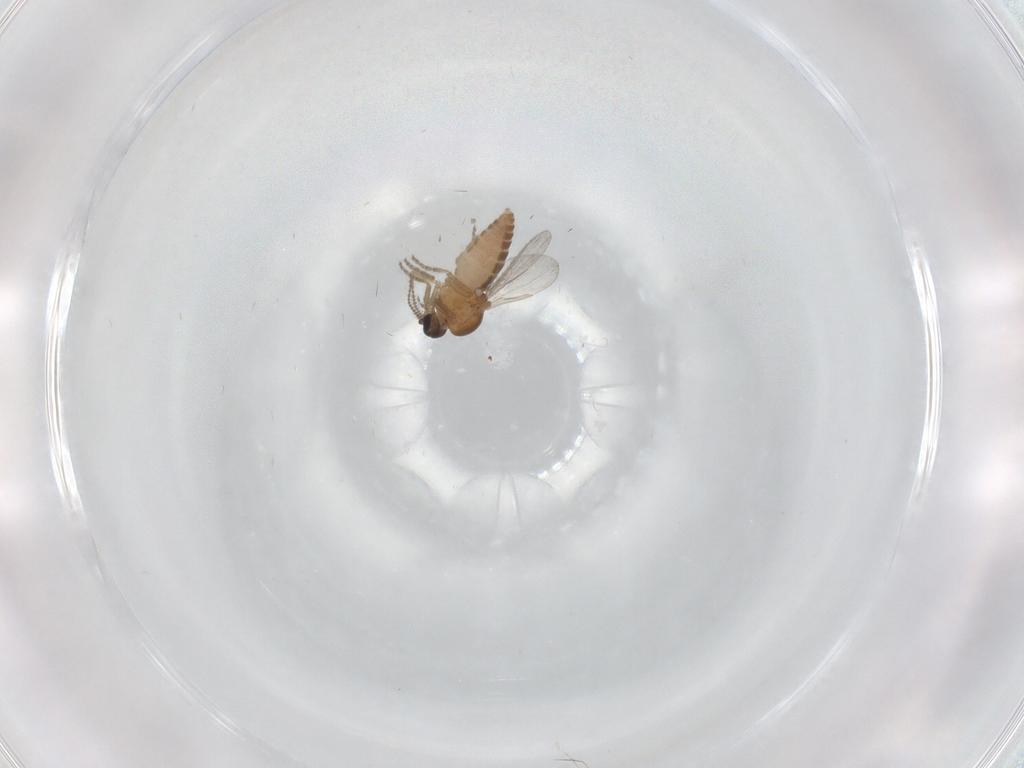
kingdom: Animalia
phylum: Arthropoda
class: Insecta
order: Diptera
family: Ceratopogonidae
